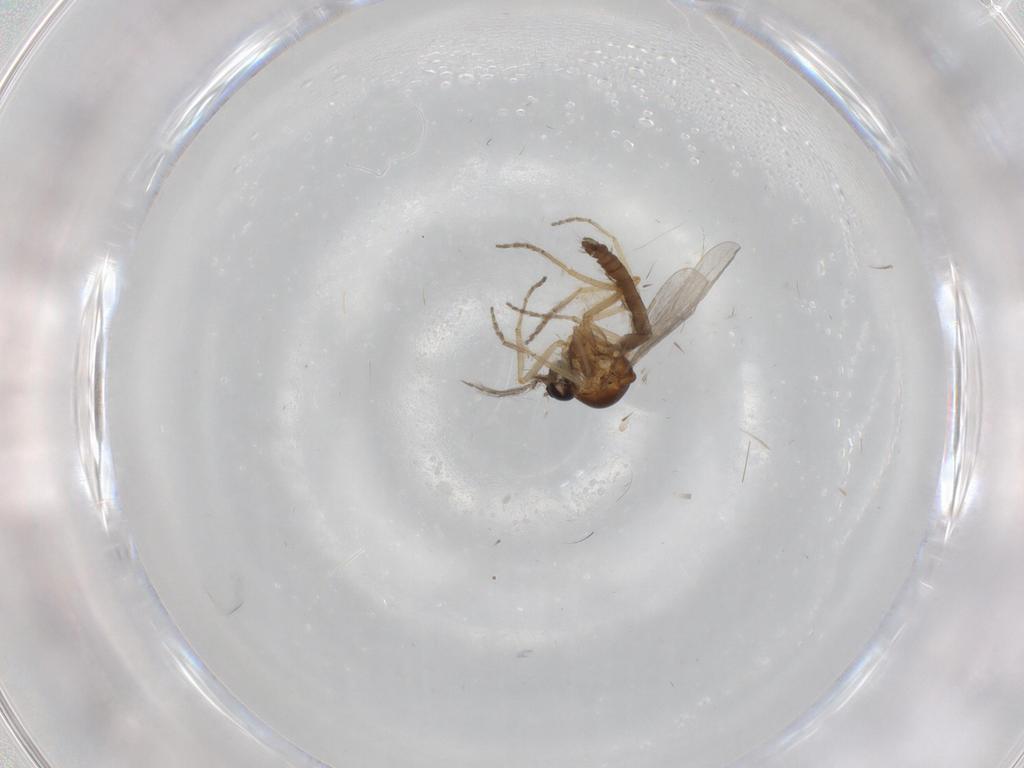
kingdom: Animalia
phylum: Arthropoda
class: Insecta
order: Diptera
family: Ceratopogonidae
